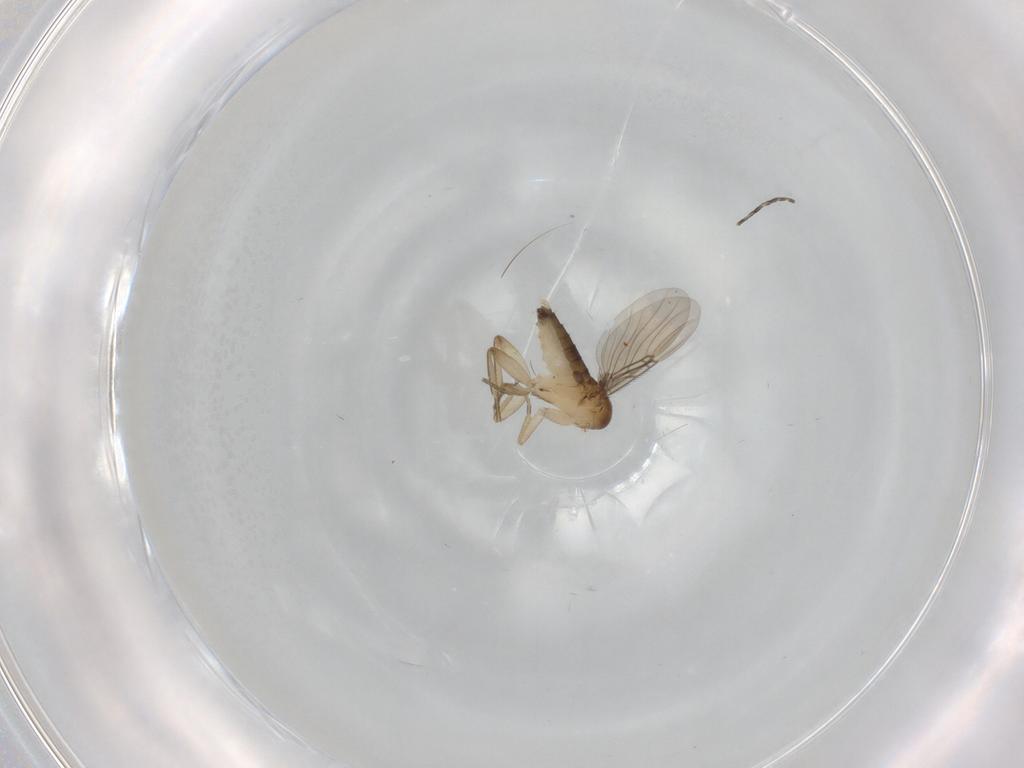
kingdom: Animalia
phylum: Arthropoda
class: Insecta
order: Diptera
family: Phoridae
